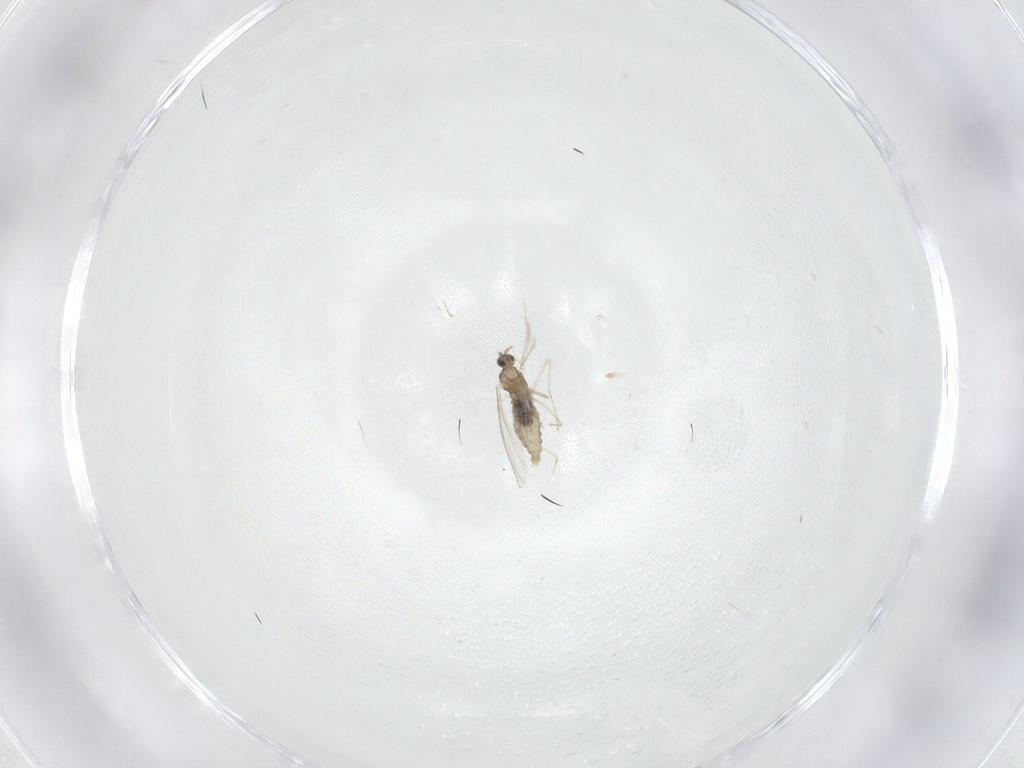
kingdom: Animalia
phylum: Arthropoda
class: Insecta
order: Diptera
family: Cecidomyiidae
